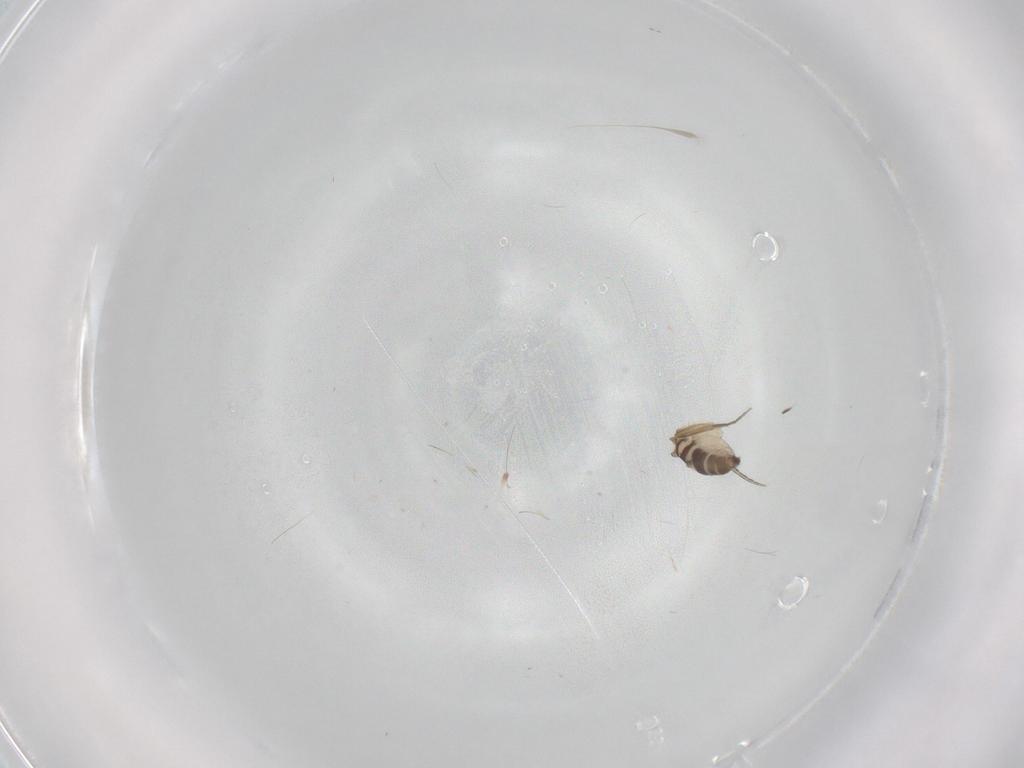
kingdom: Animalia
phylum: Arthropoda
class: Insecta
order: Diptera
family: Phoridae
